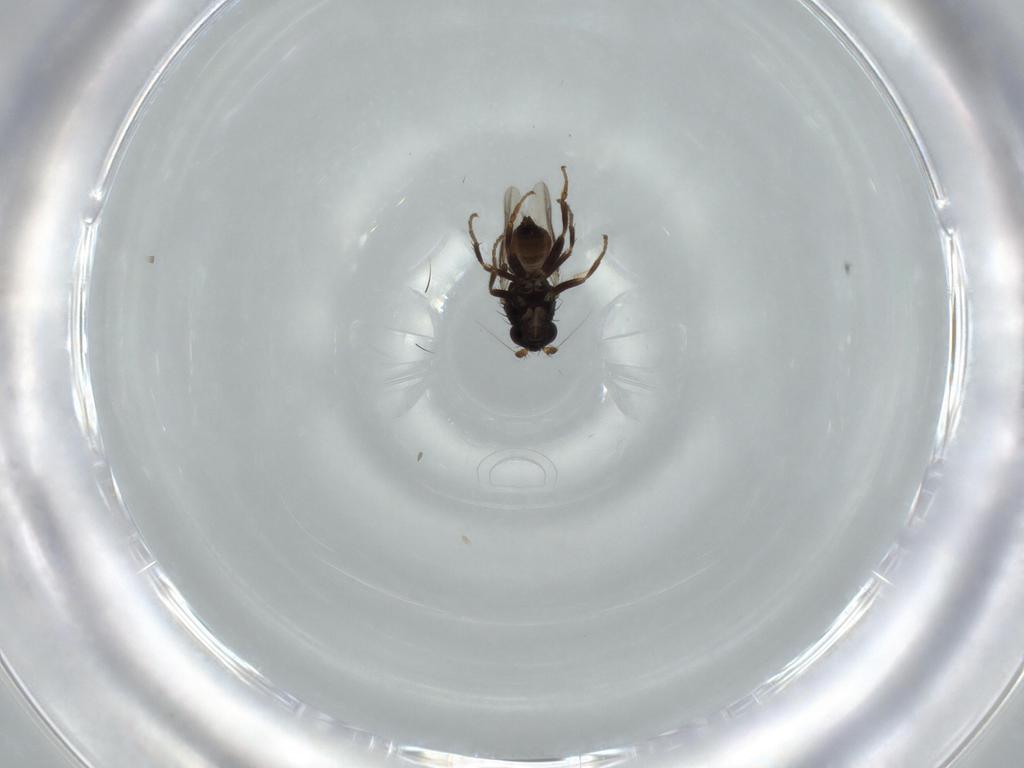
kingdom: Animalia
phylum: Arthropoda
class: Insecta
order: Diptera
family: Sphaeroceridae
